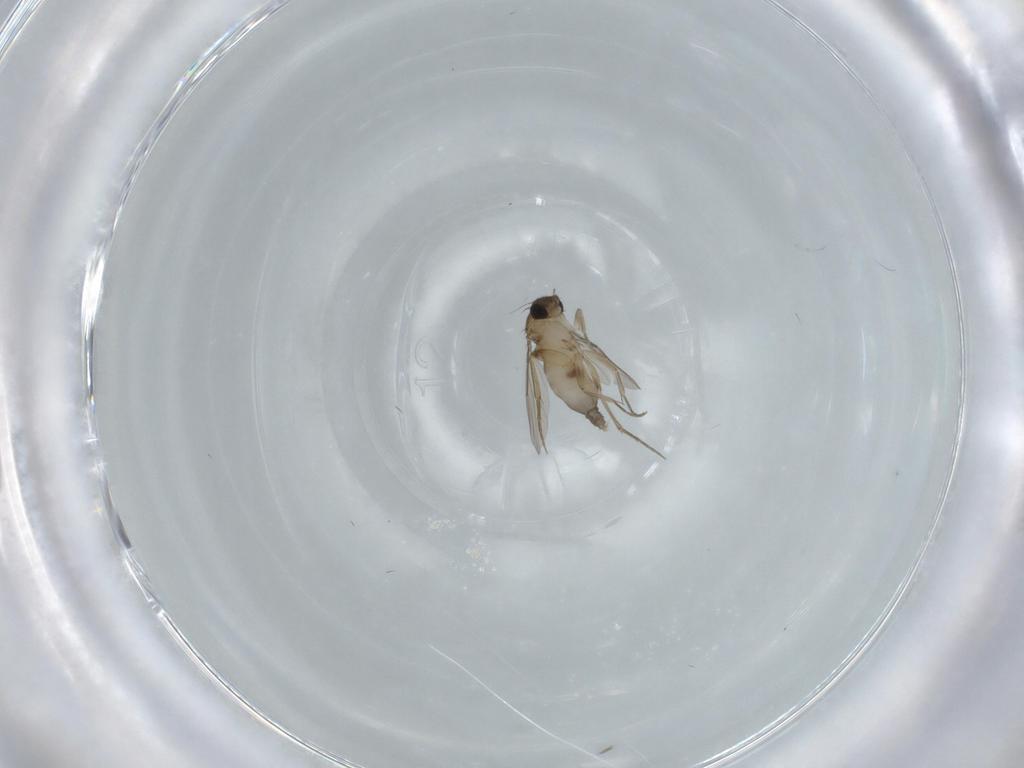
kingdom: Animalia
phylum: Arthropoda
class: Insecta
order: Diptera
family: Phoridae
